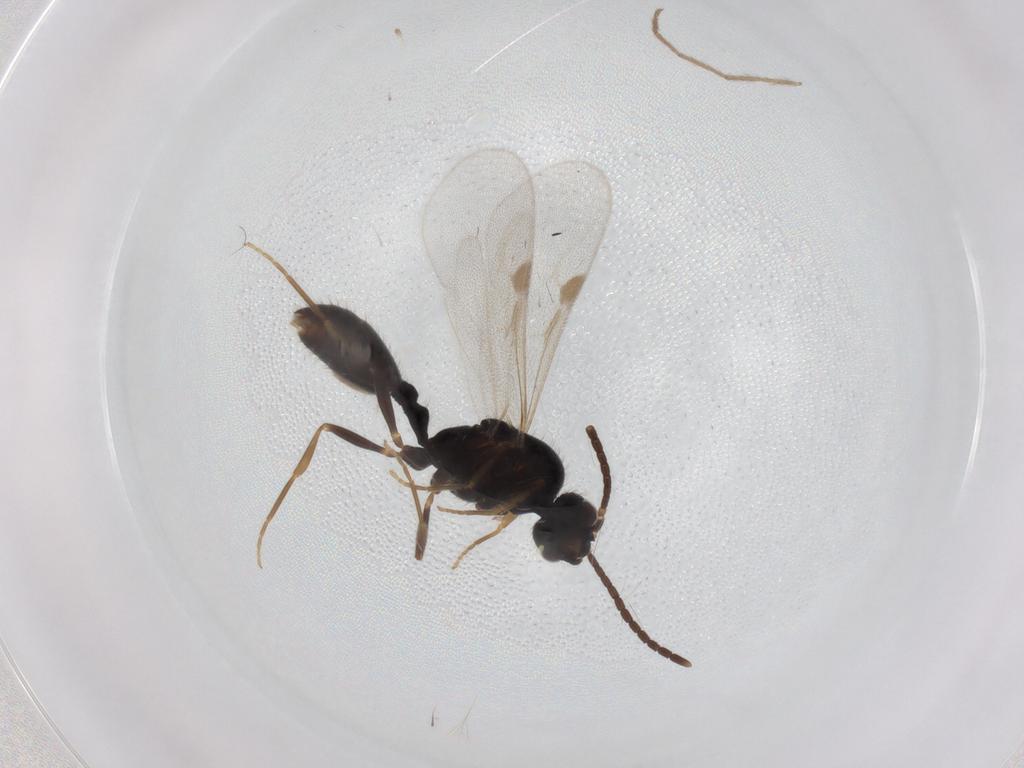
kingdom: Animalia
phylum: Arthropoda
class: Insecta
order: Hymenoptera
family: Formicidae
